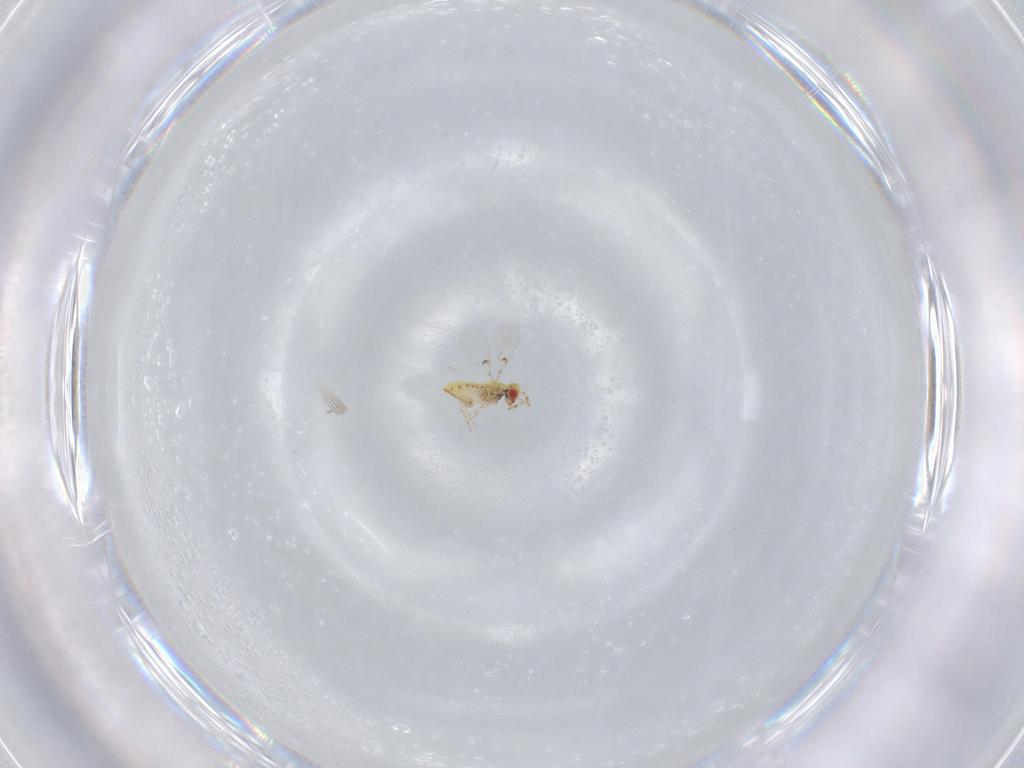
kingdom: Animalia
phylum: Arthropoda
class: Insecta
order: Hymenoptera
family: Trichogrammatidae
